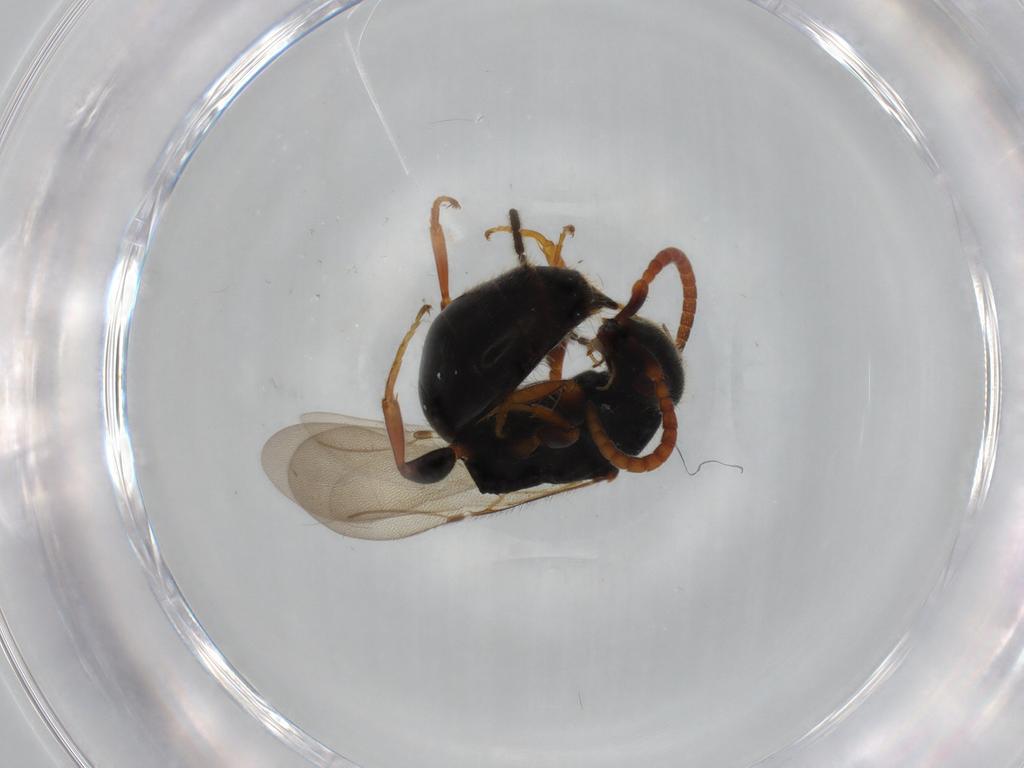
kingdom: Animalia
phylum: Arthropoda
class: Insecta
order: Hymenoptera
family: Bethylidae
